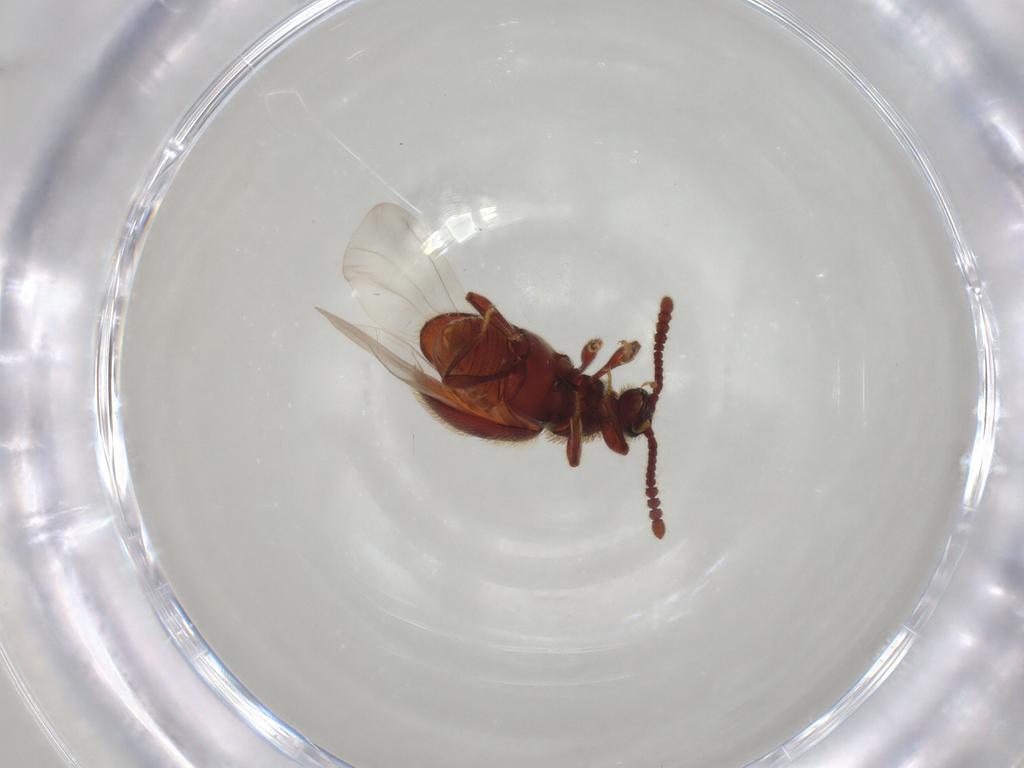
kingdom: Animalia
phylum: Arthropoda
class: Insecta
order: Coleoptera
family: Staphylinidae
